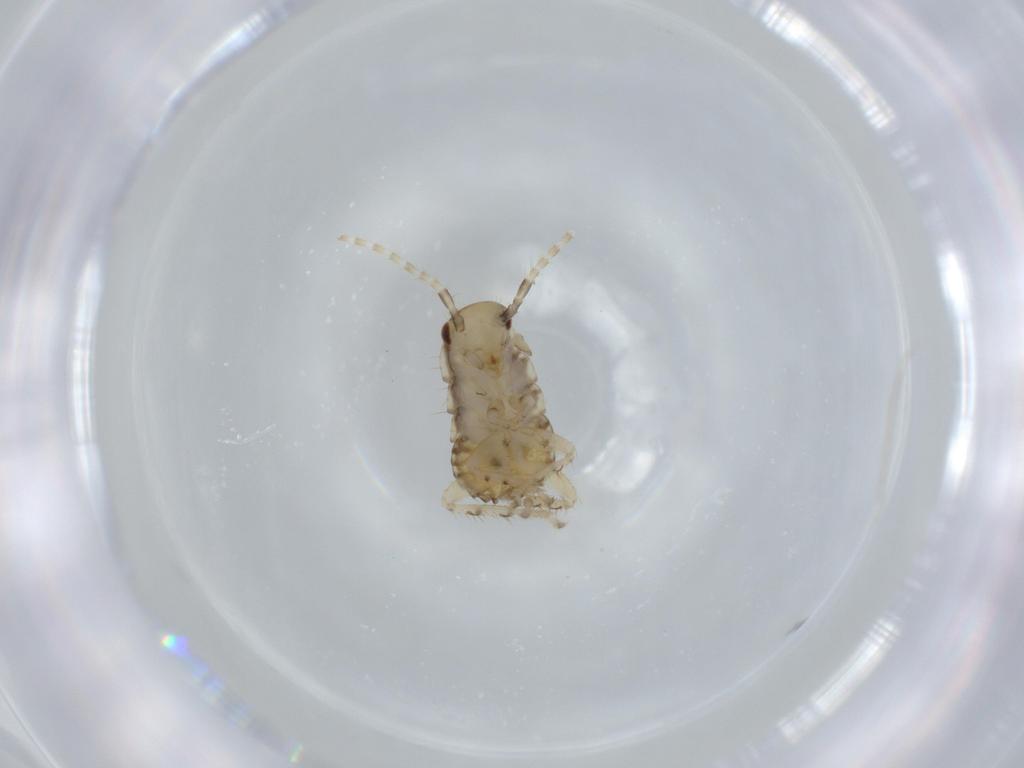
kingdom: Animalia
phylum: Arthropoda
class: Insecta
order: Blattodea
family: Ectobiidae
